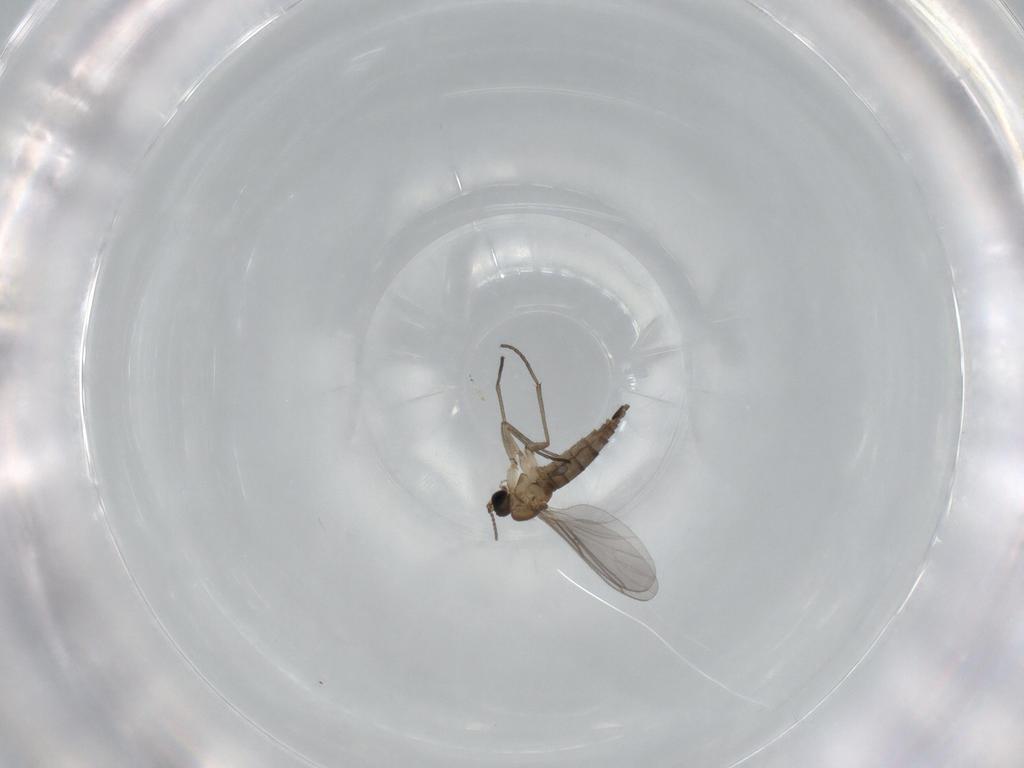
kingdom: Animalia
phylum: Arthropoda
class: Insecta
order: Diptera
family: Sciaridae
